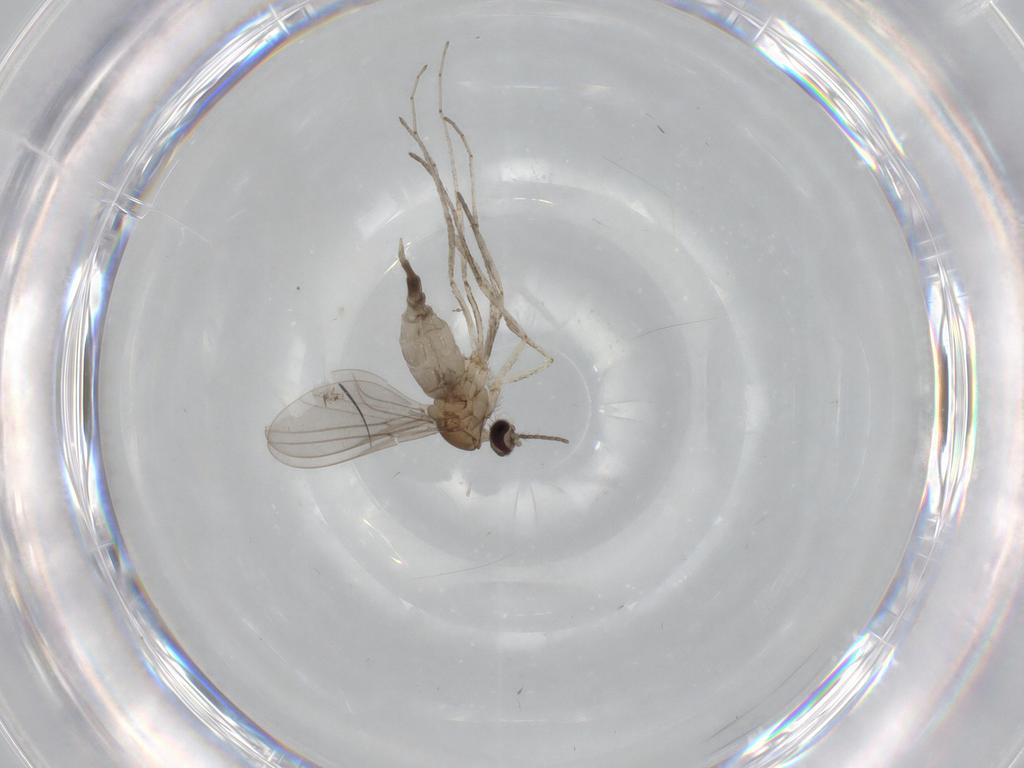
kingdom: Animalia
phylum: Arthropoda
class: Insecta
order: Diptera
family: Cecidomyiidae
